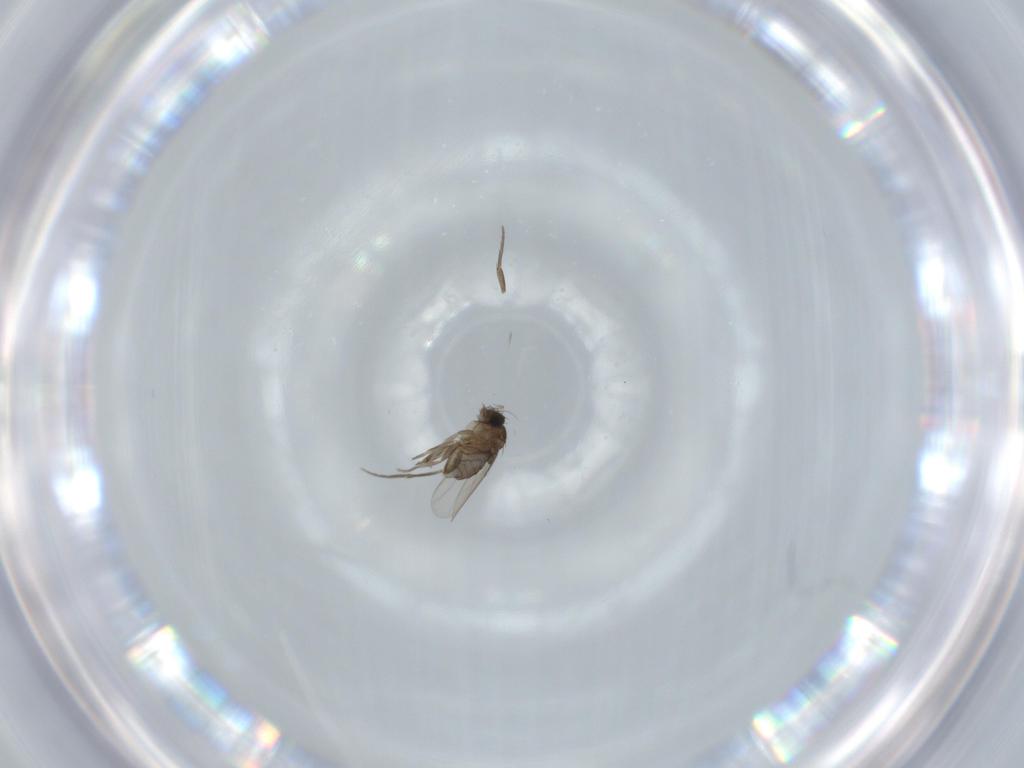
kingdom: Animalia
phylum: Arthropoda
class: Insecta
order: Diptera
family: Phoridae
